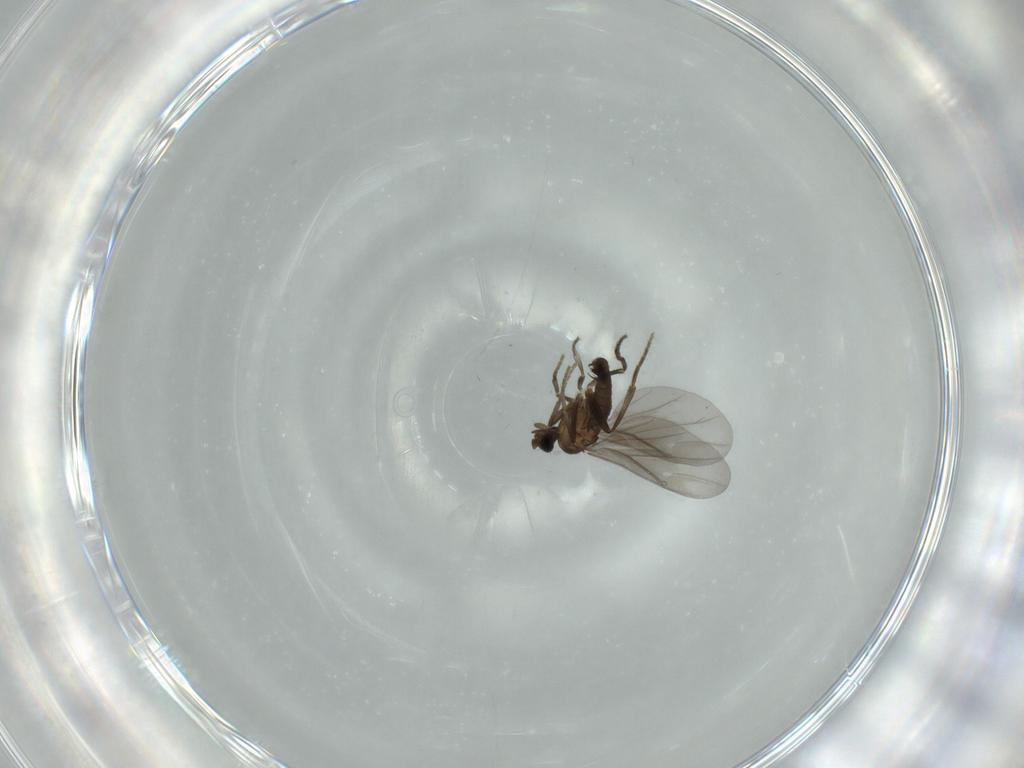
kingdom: Animalia
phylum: Arthropoda
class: Insecta
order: Diptera
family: Phoridae
